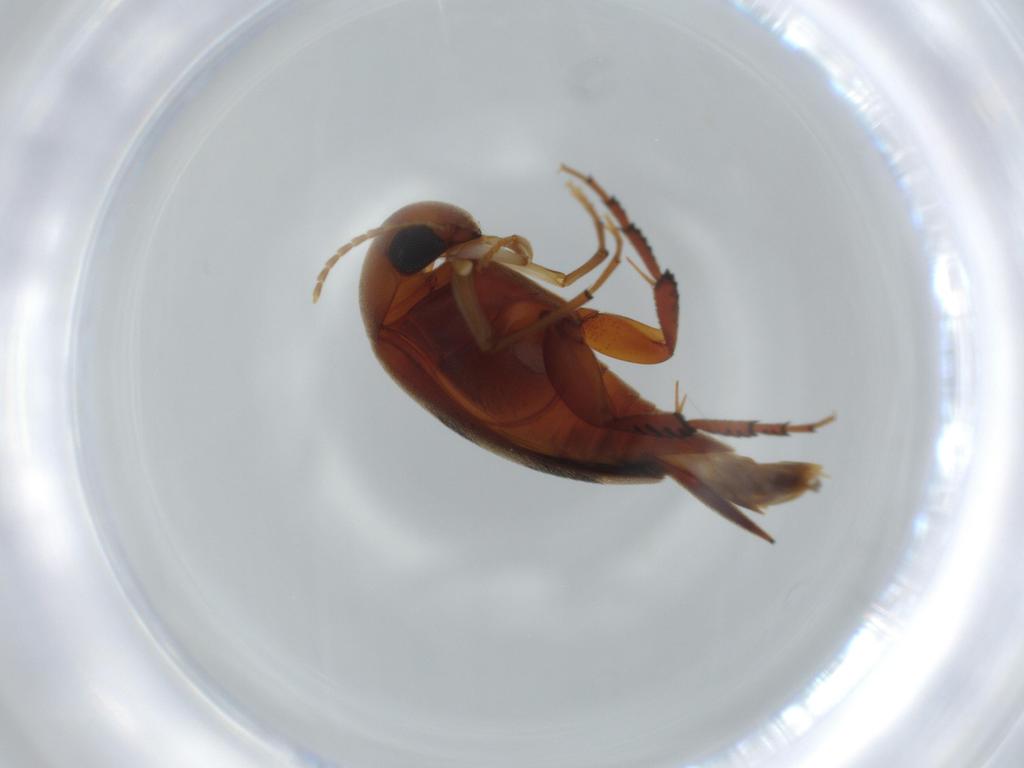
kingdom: Animalia
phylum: Arthropoda
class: Insecta
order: Coleoptera
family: Mordellidae
